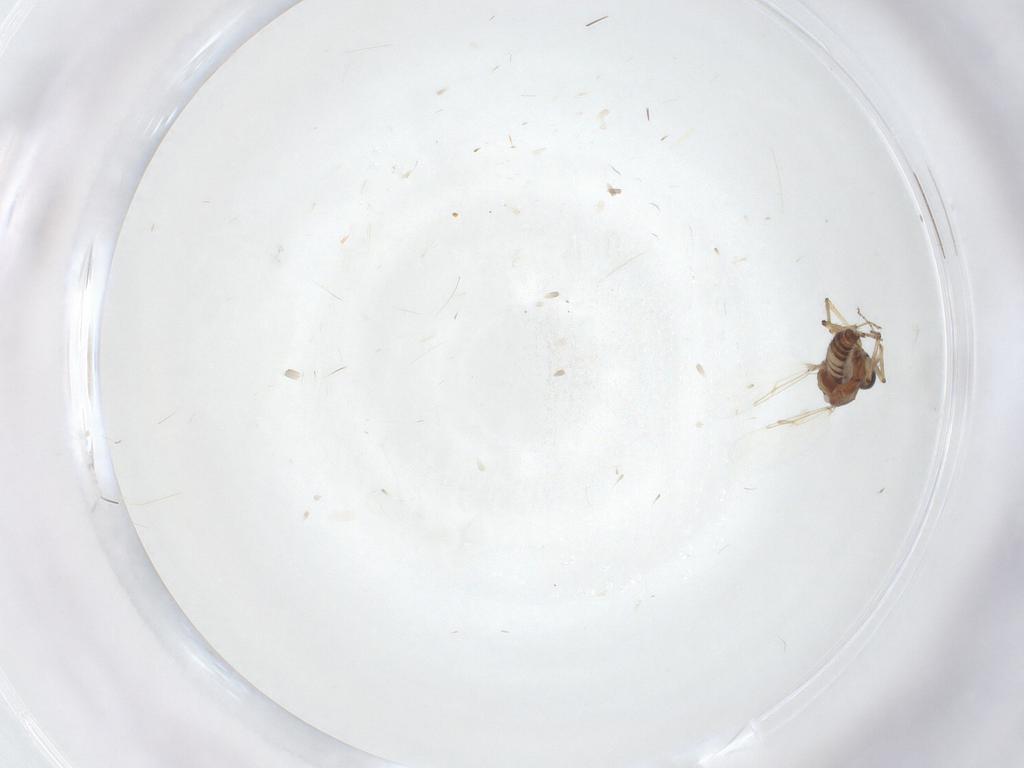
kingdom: Animalia
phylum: Arthropoda
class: Insecta
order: Diptera
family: Ceratopogonidae
